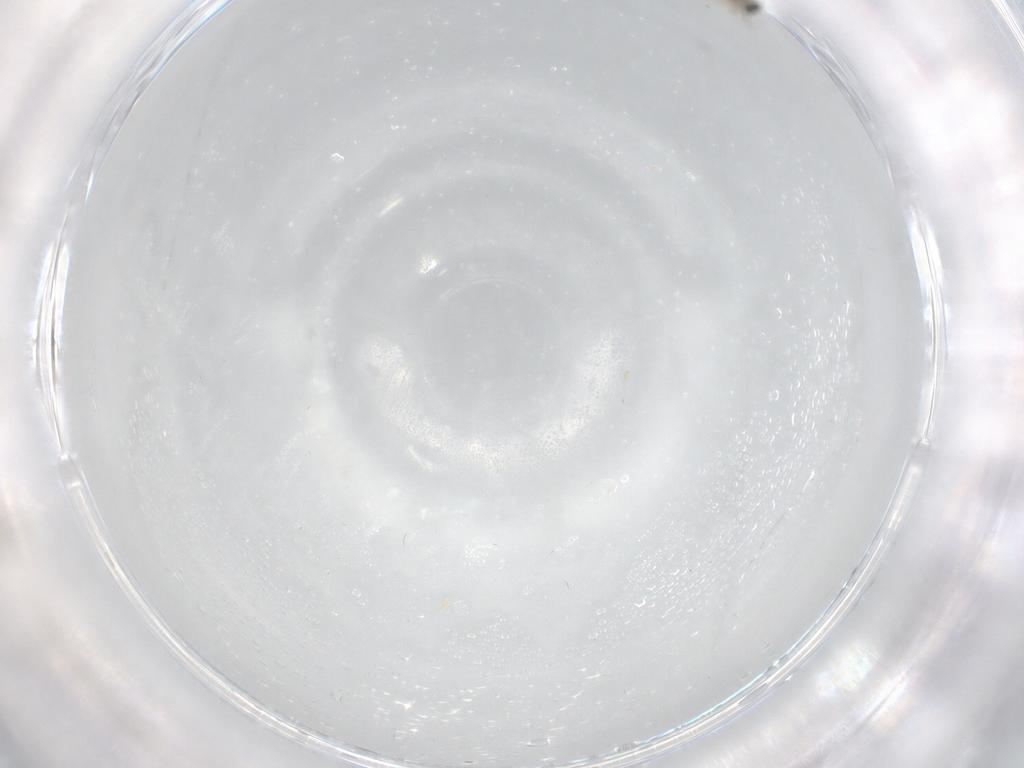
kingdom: Animalia
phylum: Arthropoda
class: Insecta
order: Hymenoptera
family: Trichogrammatidae
